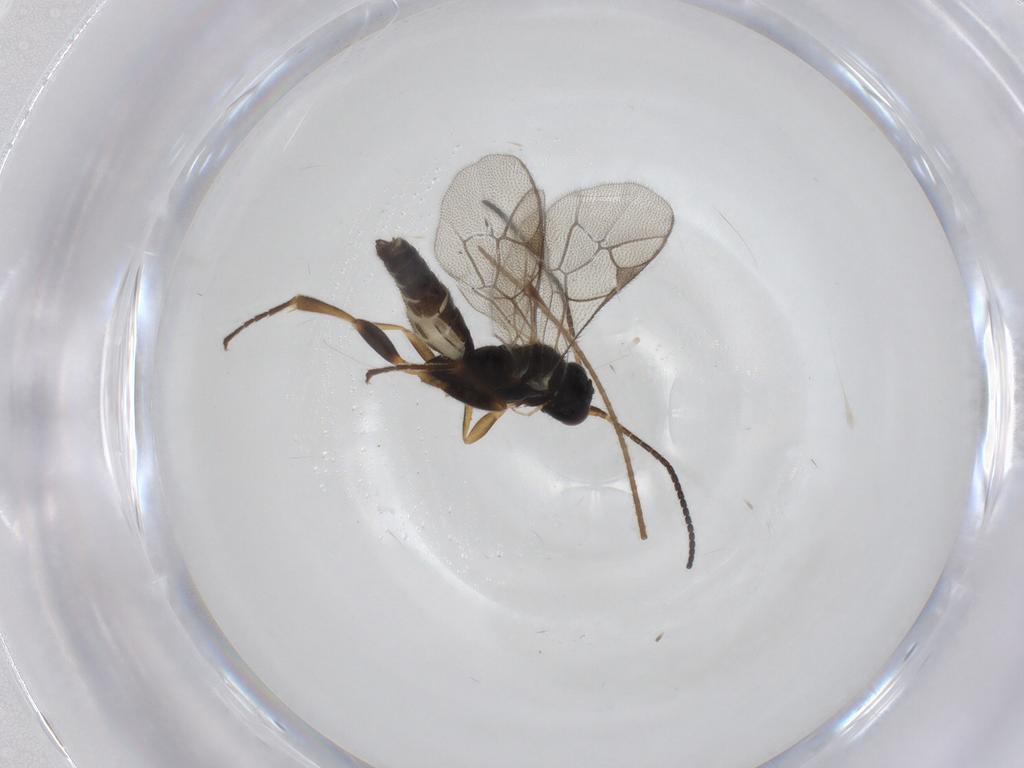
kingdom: Animalia
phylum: Arthropoda
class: Insecta
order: Hymenoptera
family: Ichneumonidae
